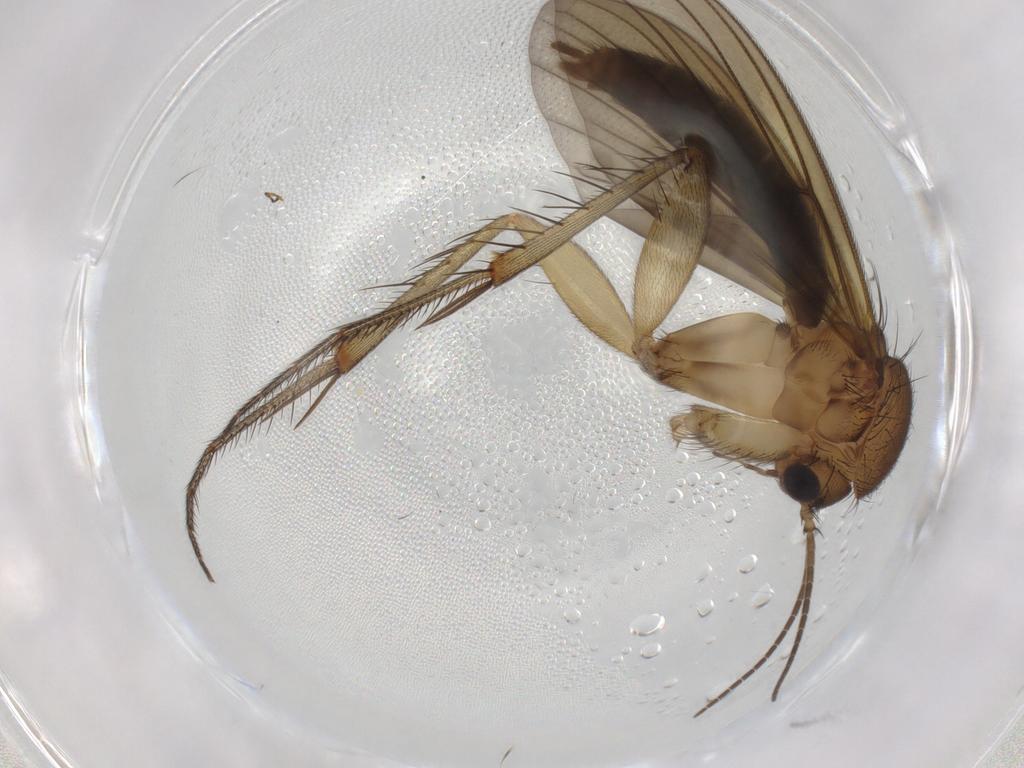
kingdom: Animalia
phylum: Arthropoda
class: Insecta
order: Diptera
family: Mycetophilidae
